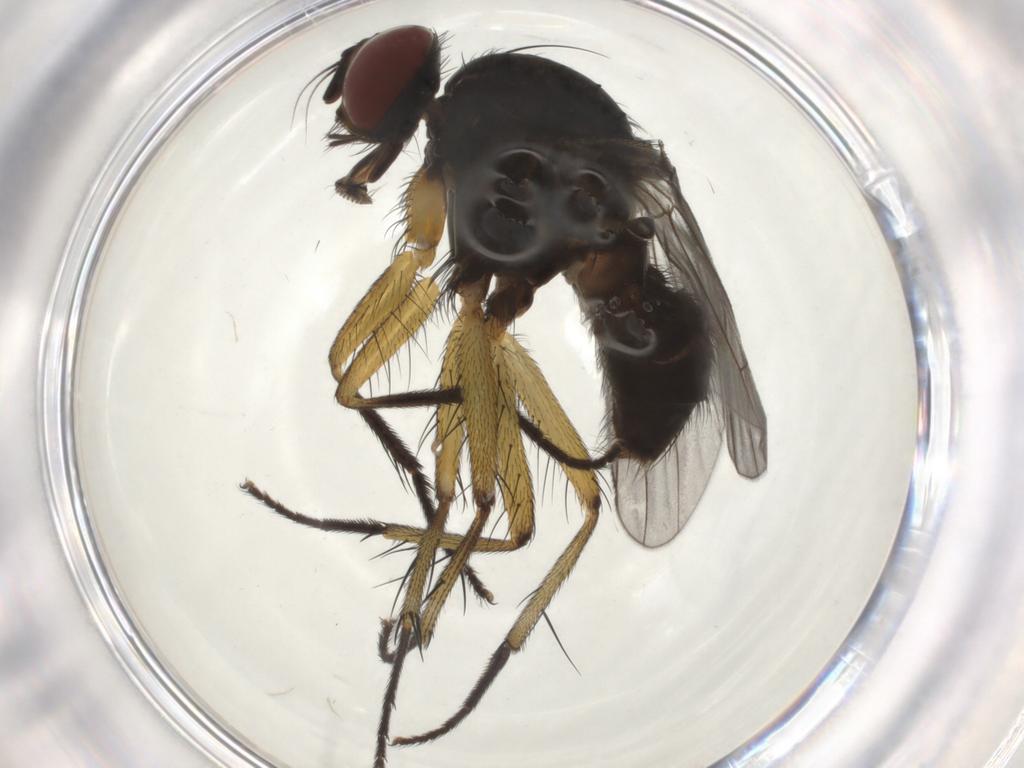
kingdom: Animalia
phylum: Arthropoda
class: Insecta
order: Diptera
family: Muscidae
